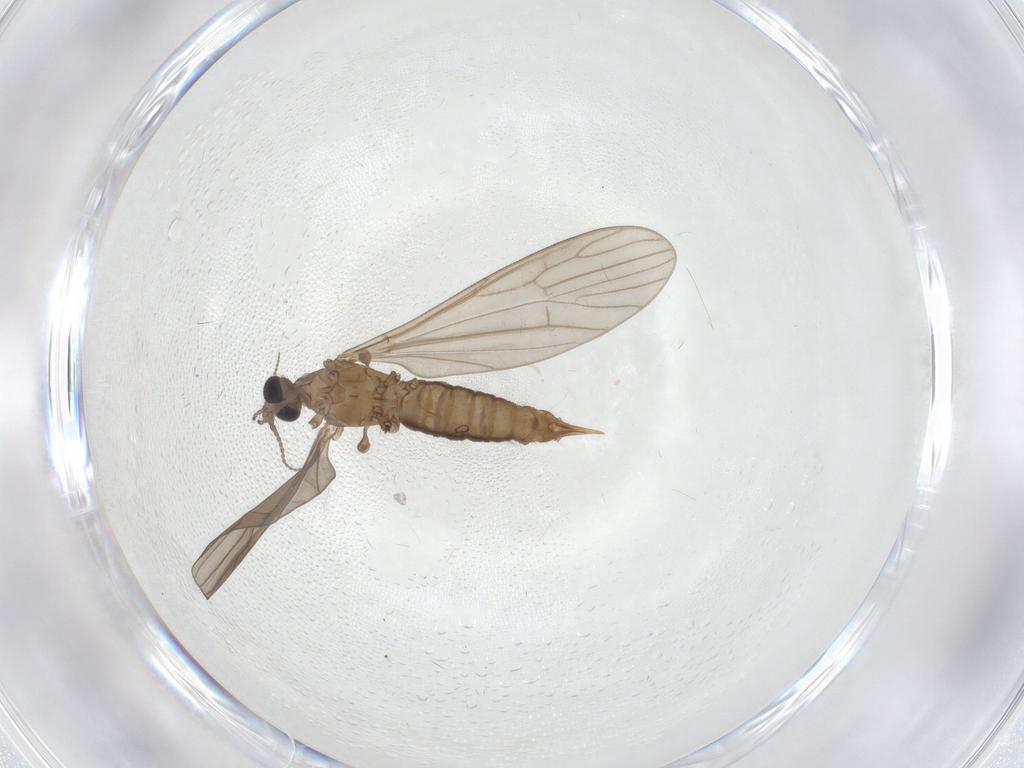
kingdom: Animalia
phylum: Arthropoda
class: Insecta
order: Diptera
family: Limoniidae
